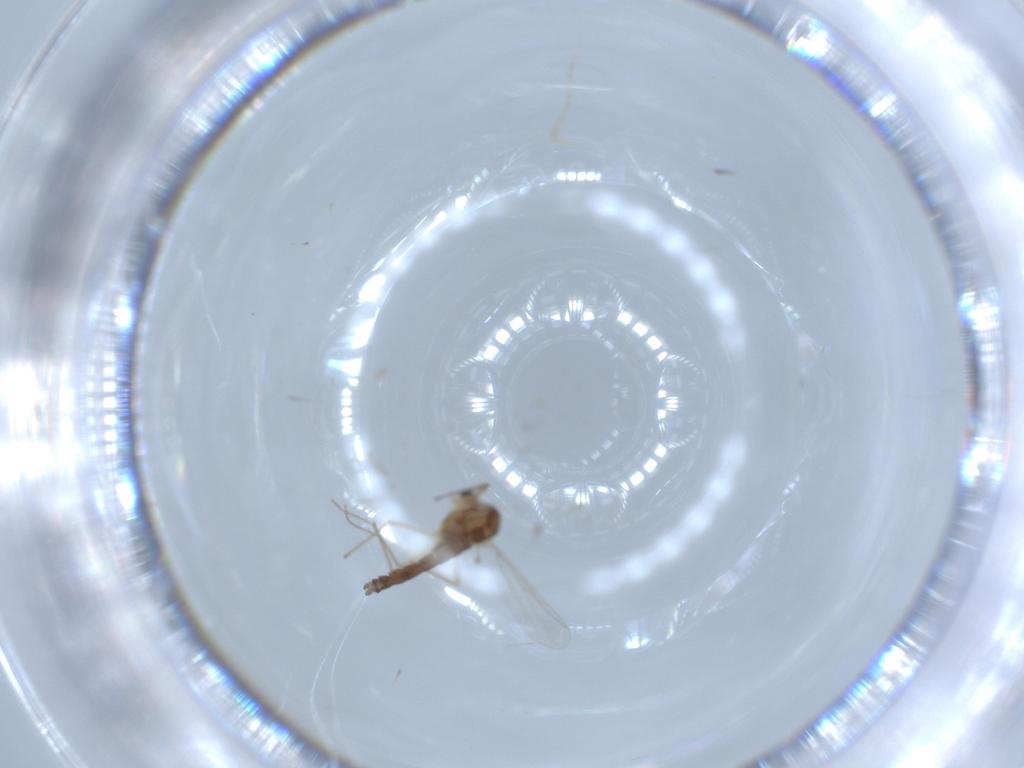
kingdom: Animalia
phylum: Arthropoda
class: Insecta
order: Diptera
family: Chironomidae
